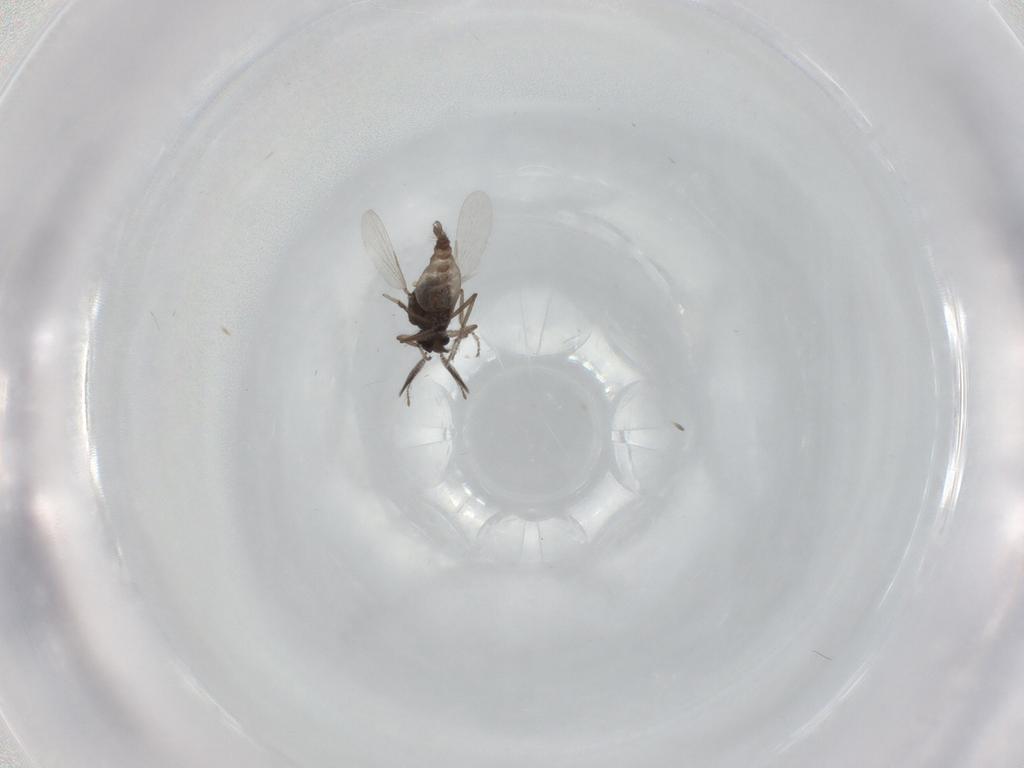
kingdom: Animalia
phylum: Arthropoda
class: Insecta
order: Diptera
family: Ceratopogonidae
